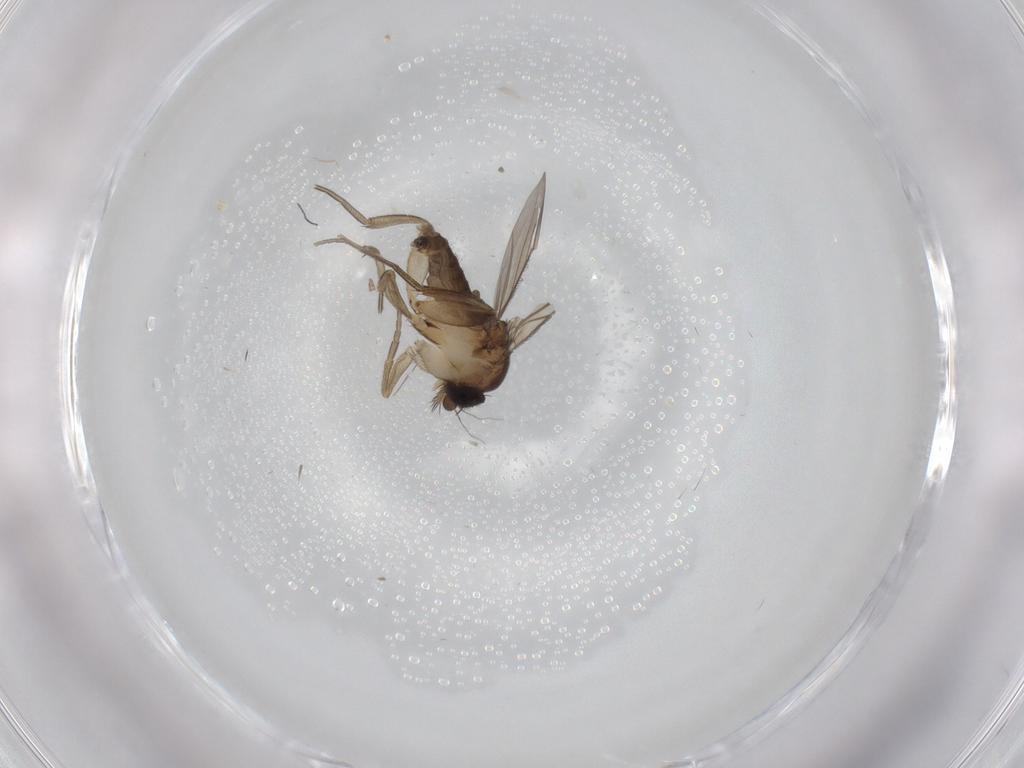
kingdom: Animalia
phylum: Arthropoda
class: Insecta
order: Diptera
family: Phoridae
